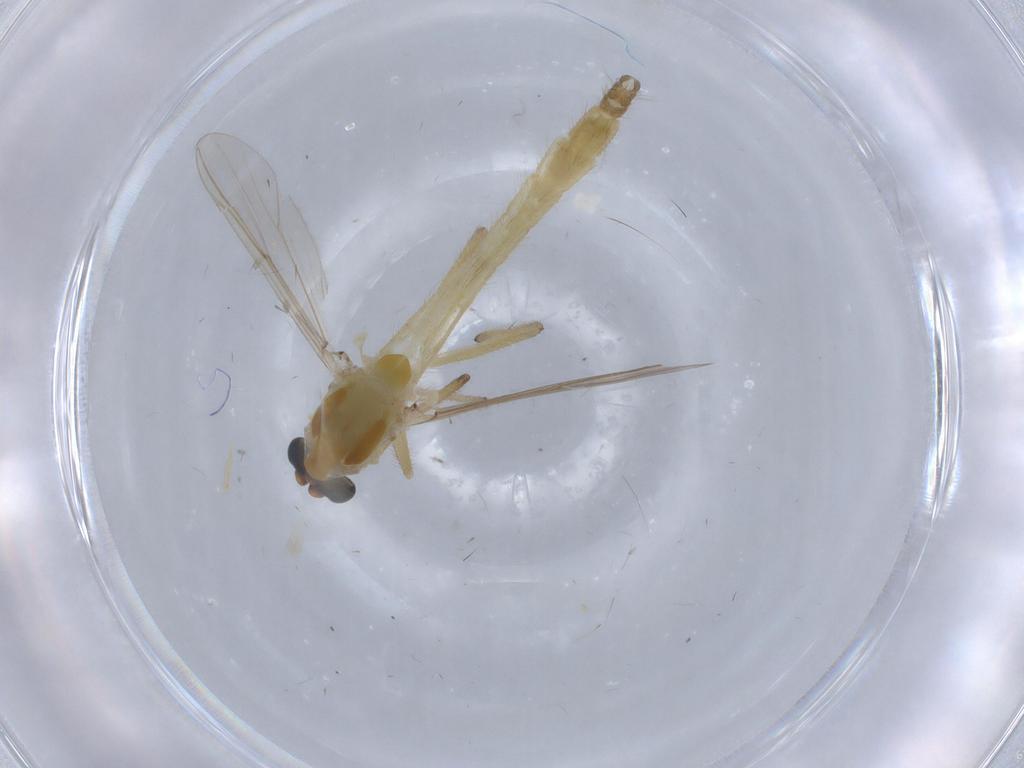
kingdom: Animalia
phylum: Arthropoda
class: Insecta
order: Diptera
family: Chironomidae
